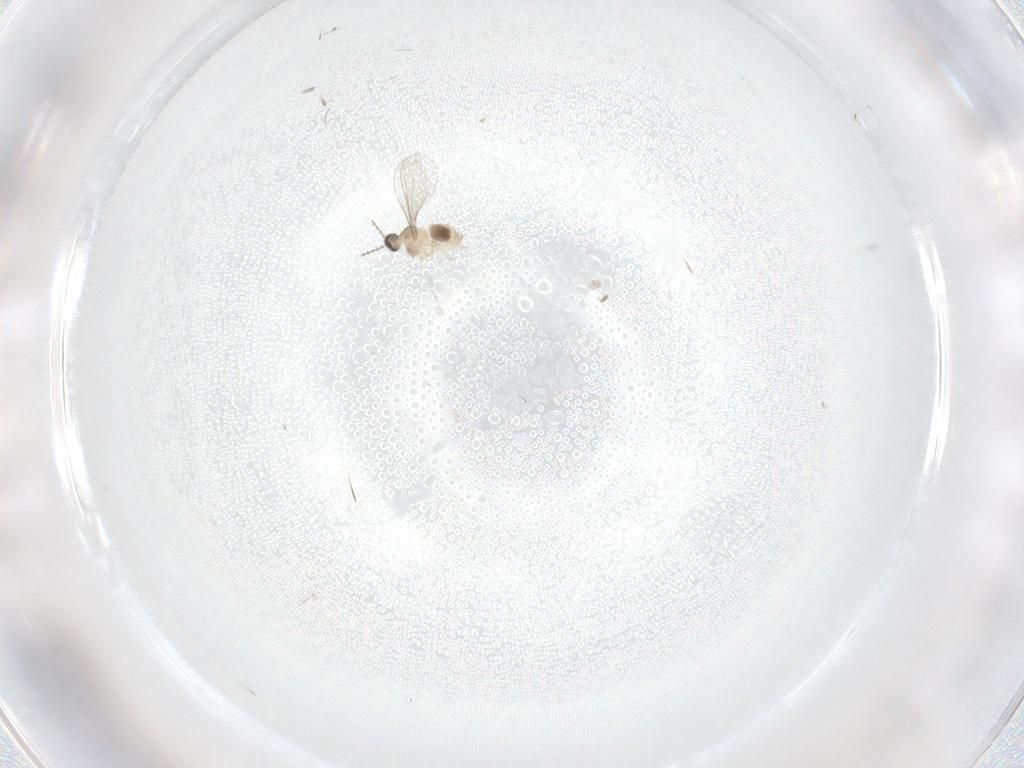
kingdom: Animalia
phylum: Arthropoda
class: Insecta
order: Diptera
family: Cecidomyiidae
